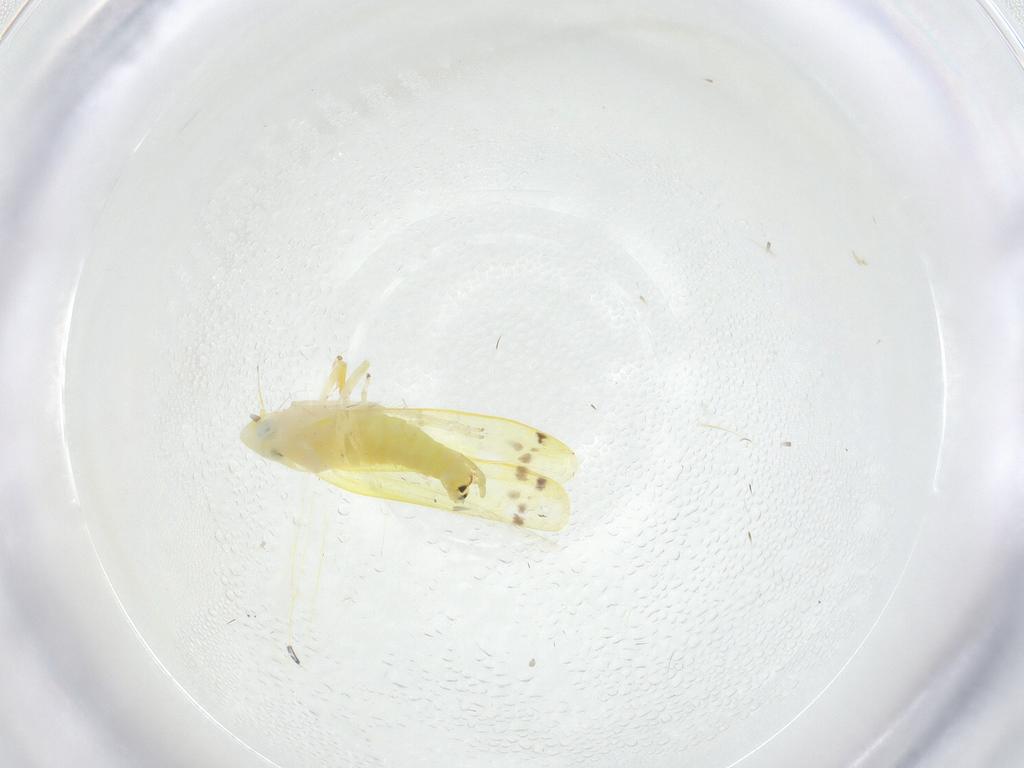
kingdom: Animalia
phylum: Arthropoda
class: Insecta
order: Hemiptera
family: Cicadellidae
